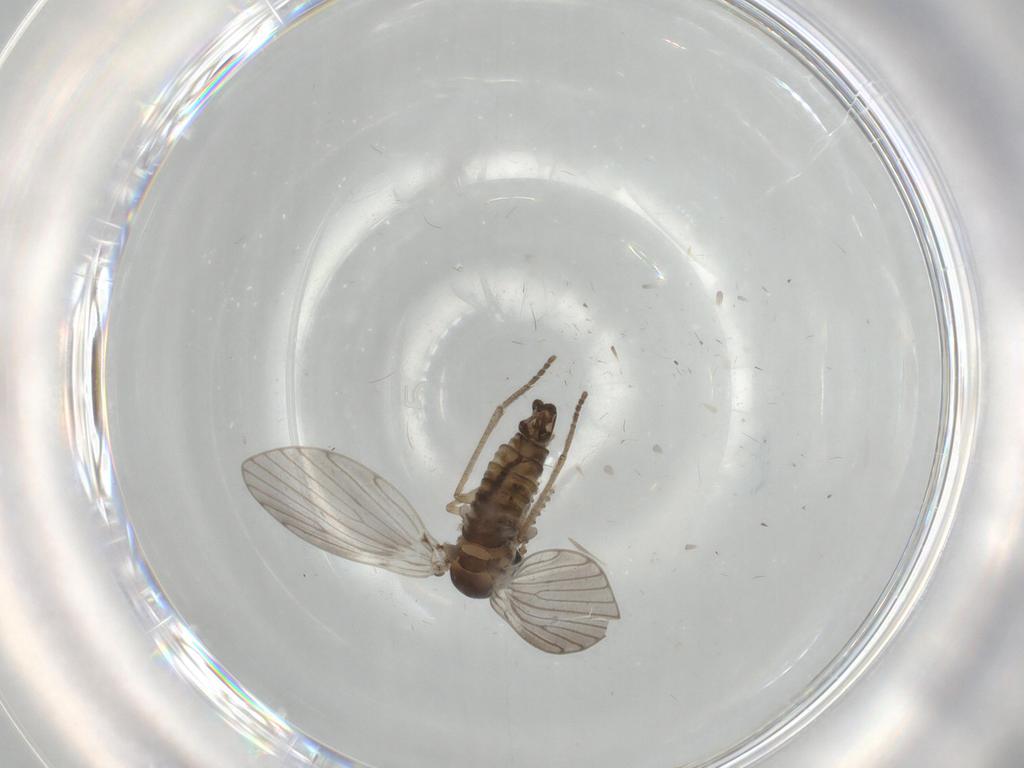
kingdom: Animalia
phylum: Arthropoda
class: Insecta
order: Diptera
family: Psychodidae
